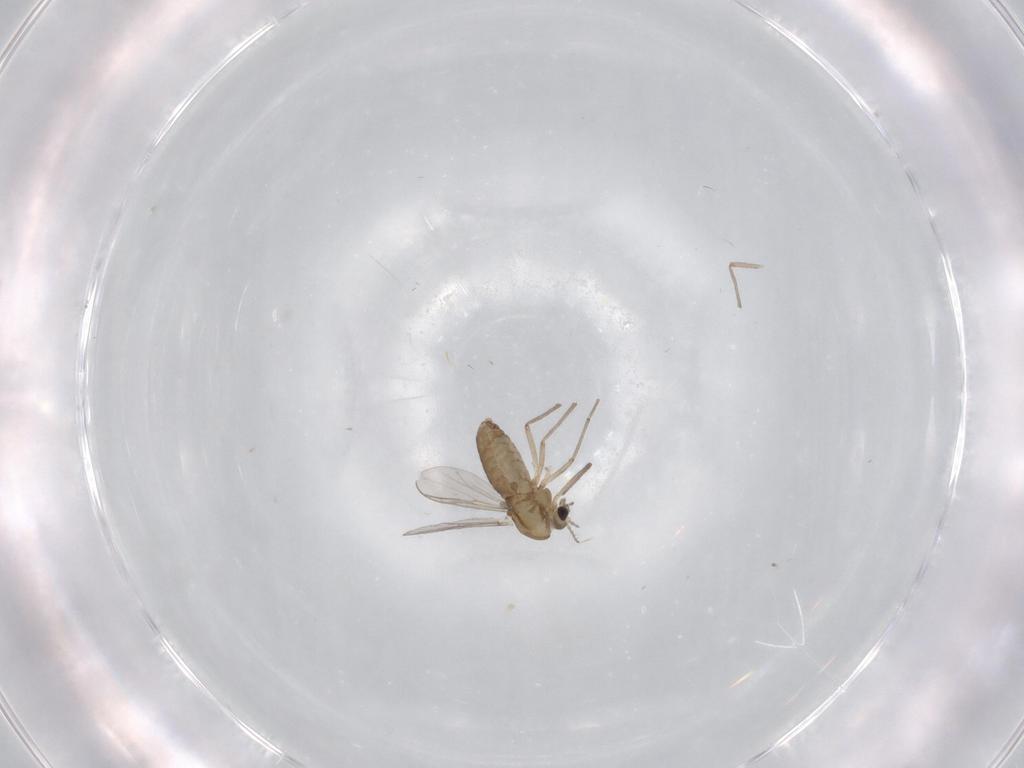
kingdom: Animalia
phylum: Arthropoda
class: Insecta
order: Diptera
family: Chironomidae
